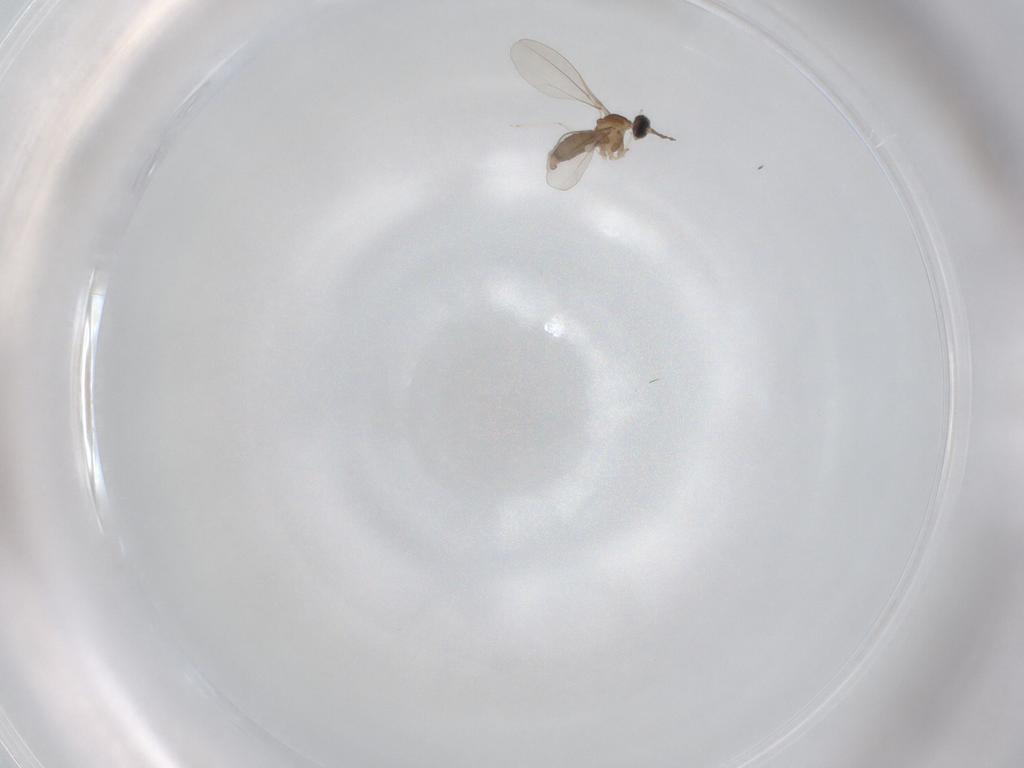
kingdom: Animalia
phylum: Arthropoda
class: Insecta
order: Diptera
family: Cecidomyiidae
